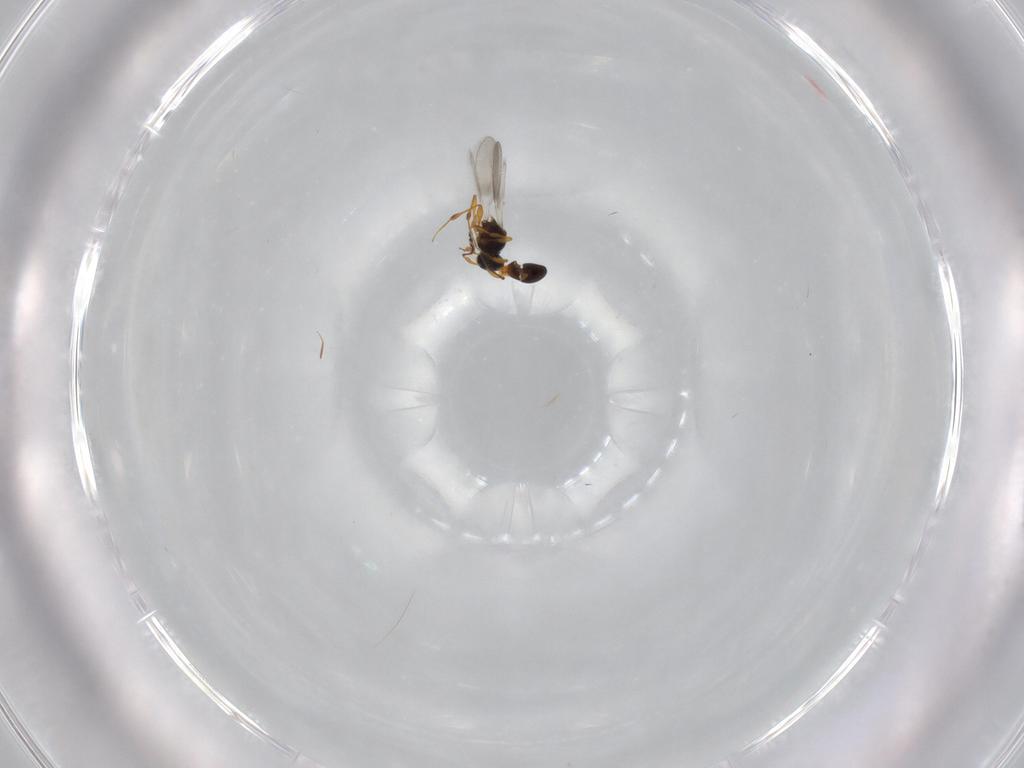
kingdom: Animalia
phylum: Arthropoda
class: Insecta
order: Hymenoptera
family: Platygastridae
